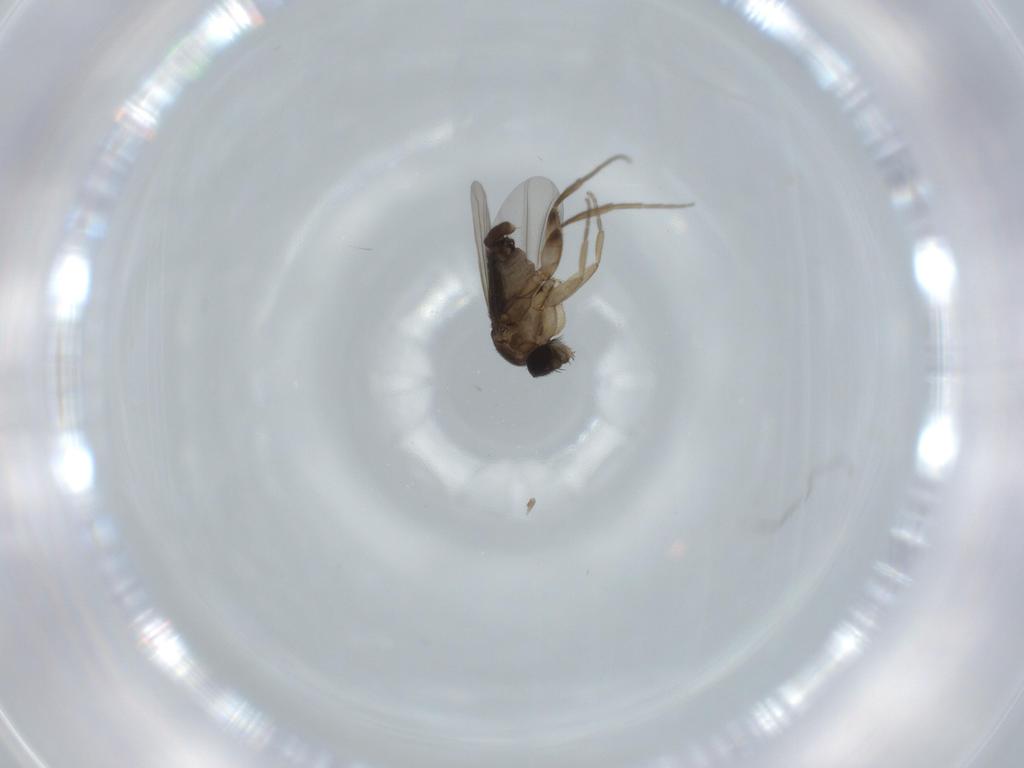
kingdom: Animalia
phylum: Arthropoda
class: Insecta
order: Diptera
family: Phoridae
